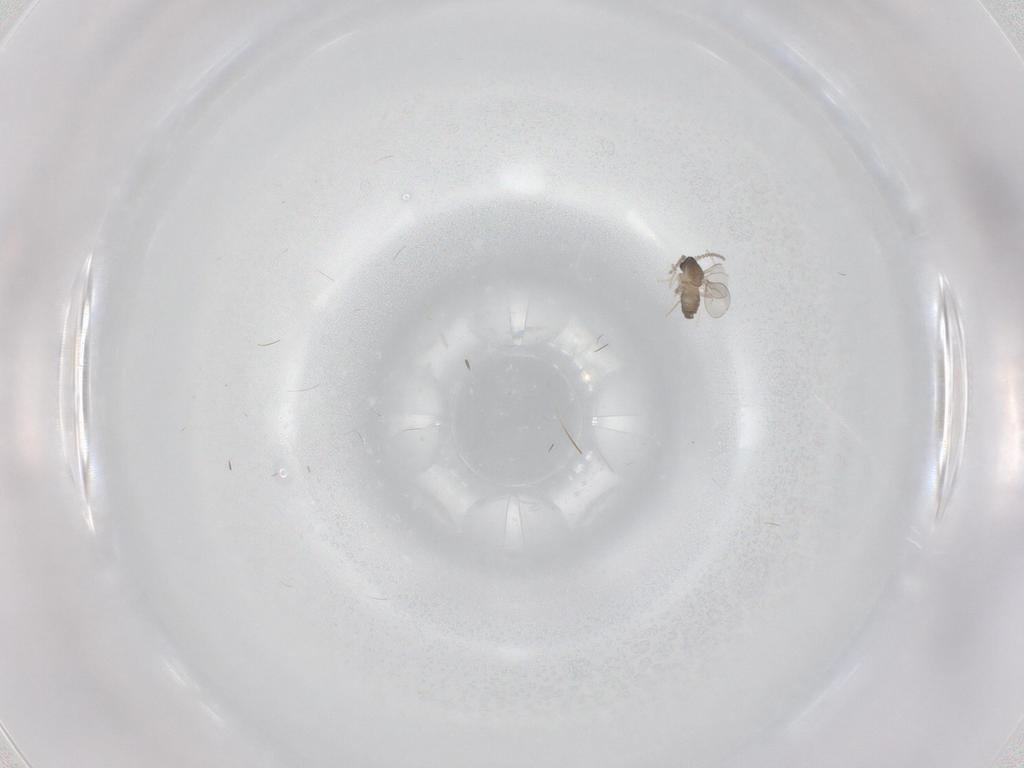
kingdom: Animalia
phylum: Arthropoda
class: Insecta
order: Diptera
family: Cecidomyiidae
